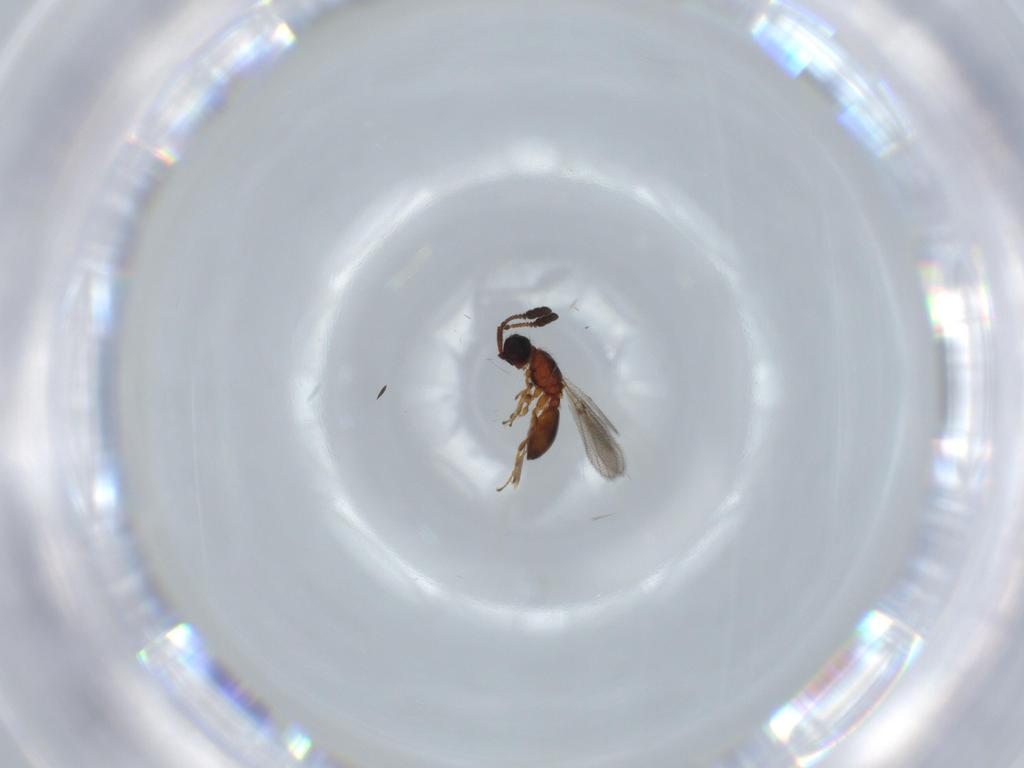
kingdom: Animalia
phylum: Arthropoda
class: Insecta
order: Hymenoptera
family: Diapriidae
